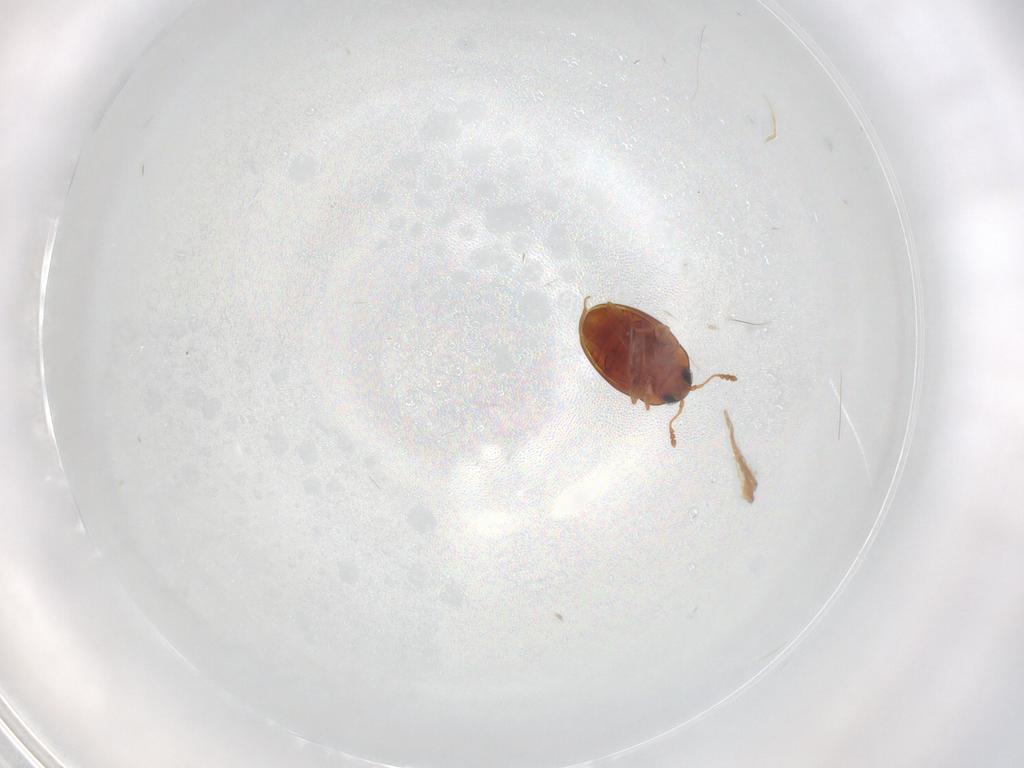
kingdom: Animalia
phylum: Arthropoda
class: Insecta
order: Coleoptera
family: Cryptophagidae
